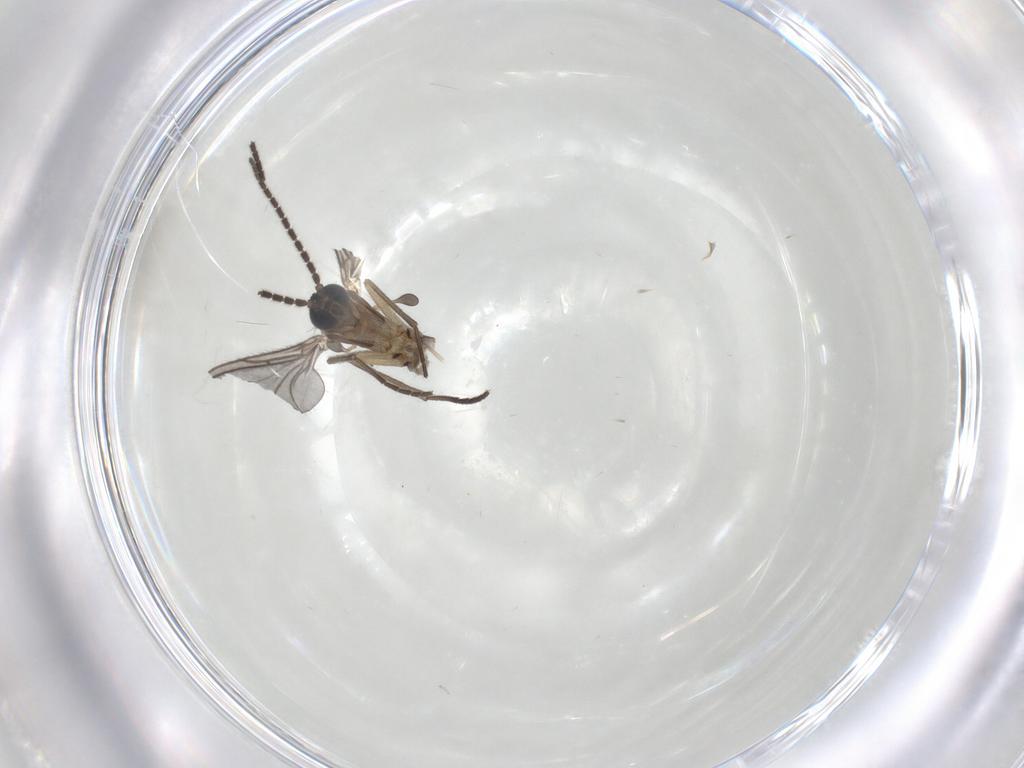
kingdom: Animalia
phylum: Arthropoda
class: Insecta
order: Diptera
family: Sciaridae
